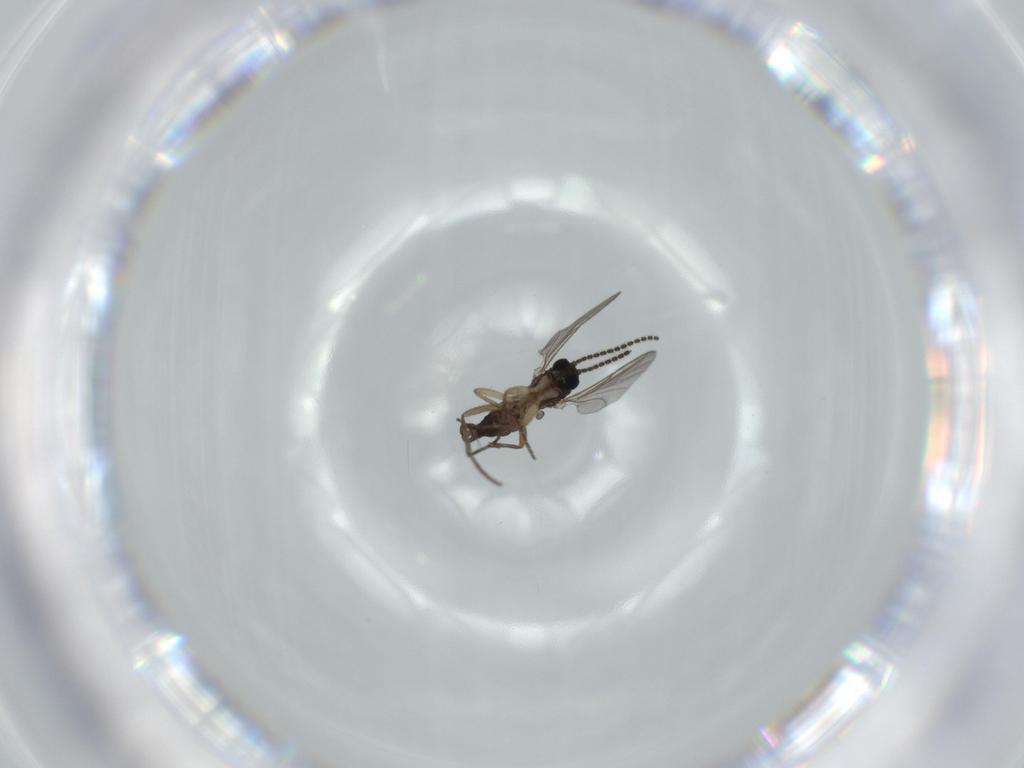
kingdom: Animalia
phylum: Arthropoda
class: Insecta
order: Diptera
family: Sciaridae
